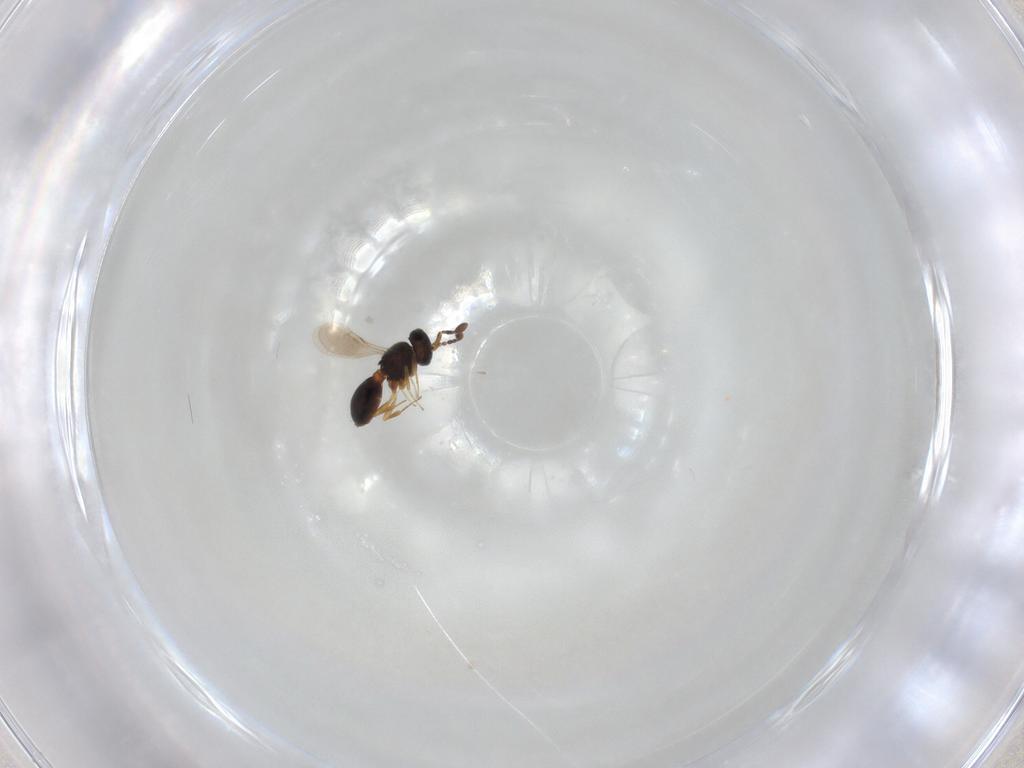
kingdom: Animalia
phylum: Arthropoda
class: Insecta
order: Hymenoptera
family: Scelionidae
